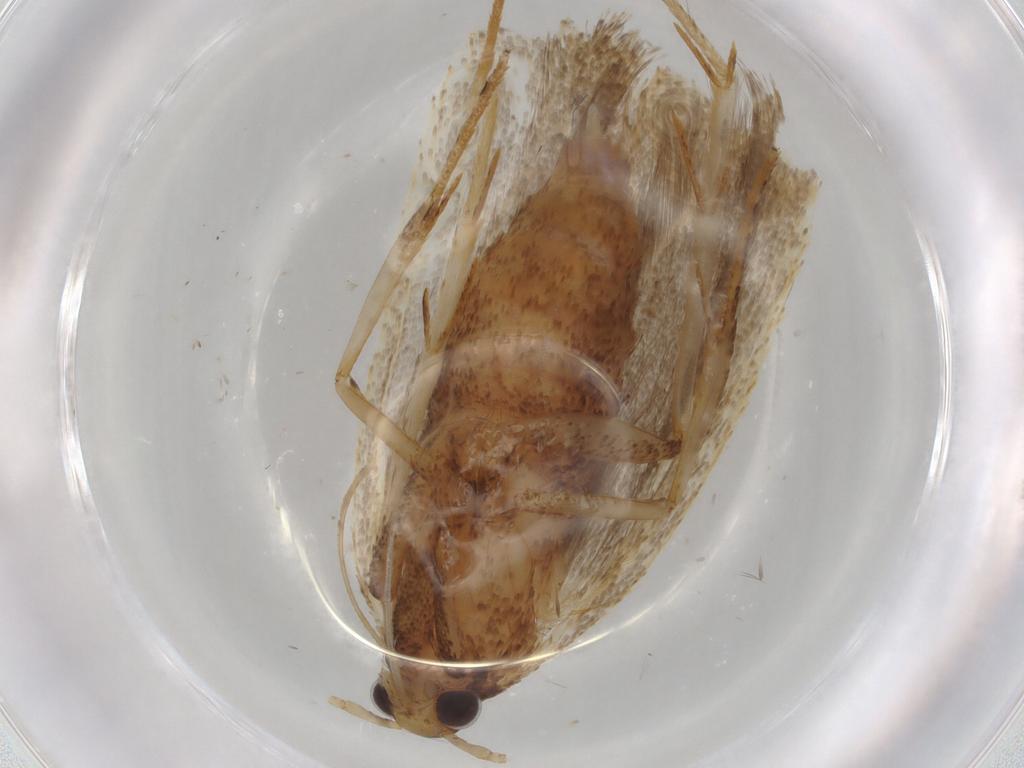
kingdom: Animalia
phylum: Arthropoda
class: Insecta
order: Lepidoptera
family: Lecithoceridae
